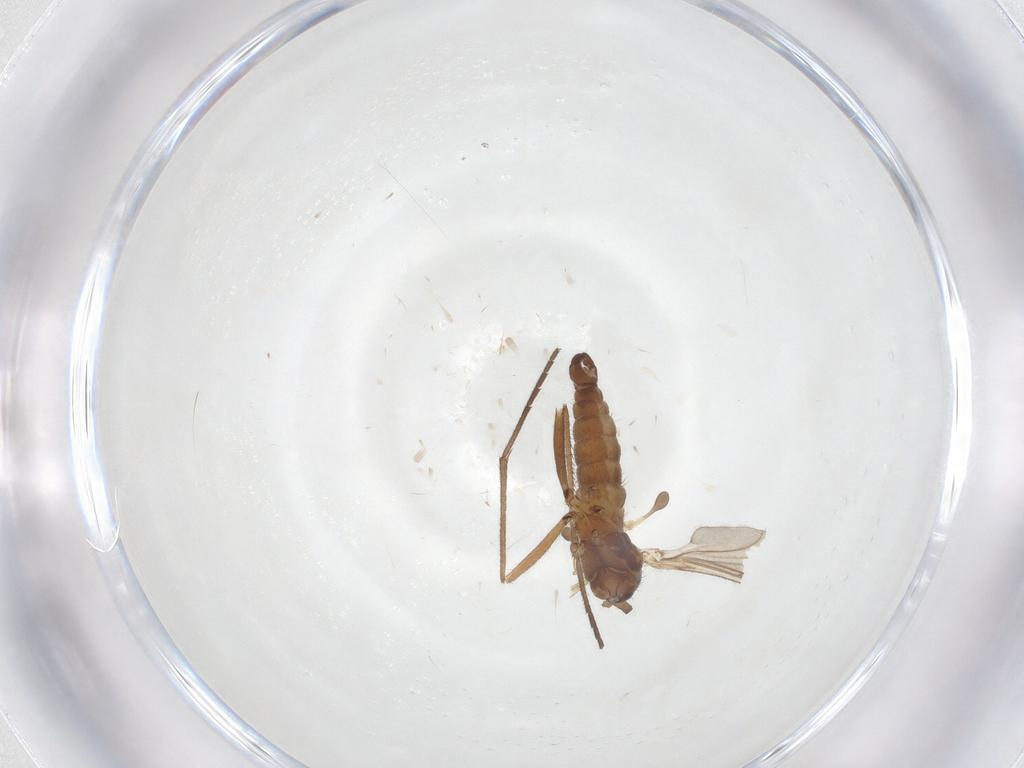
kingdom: Animalia
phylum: Arthropoda
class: Insecta
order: Diptera
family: Sciaridae
